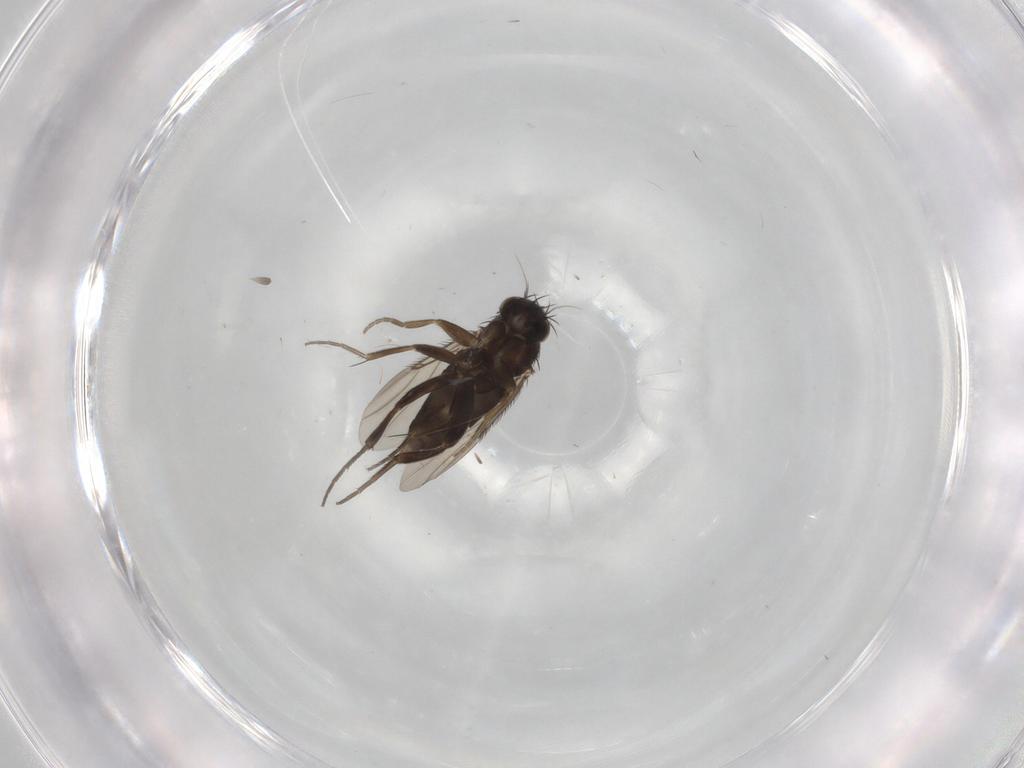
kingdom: Animalia
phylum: Arthropoda
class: Insecta
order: Diptera
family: Phoridae
